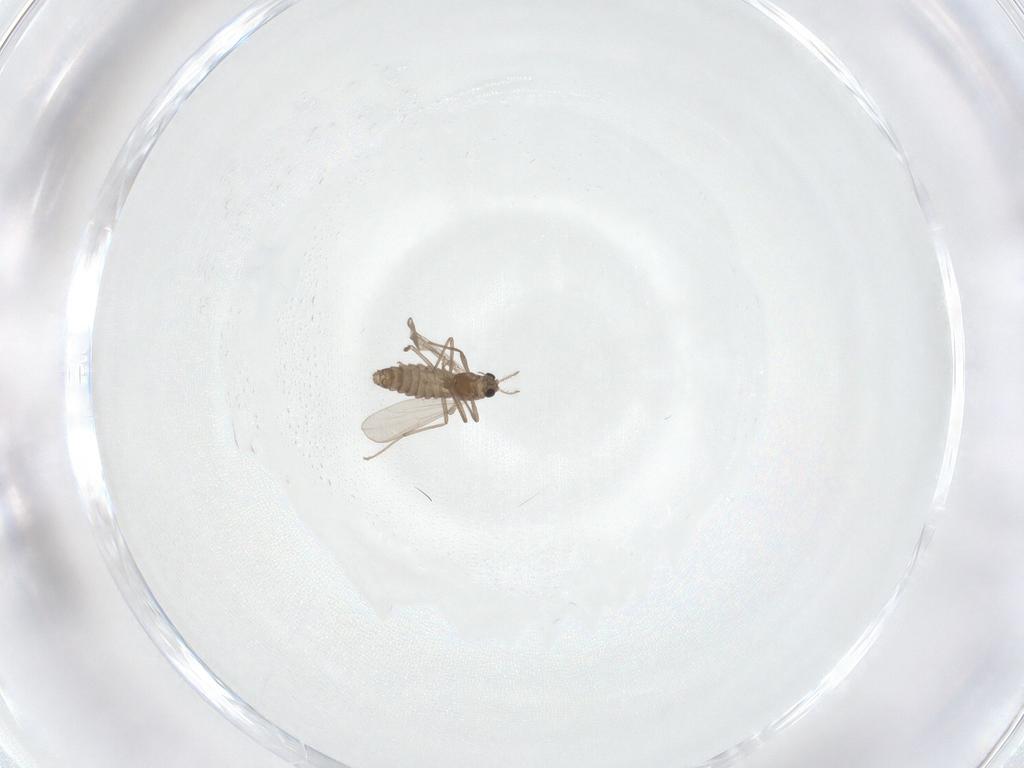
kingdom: Animalia
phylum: Arthropoda
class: Insecta
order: Diptera
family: Chironomidae
